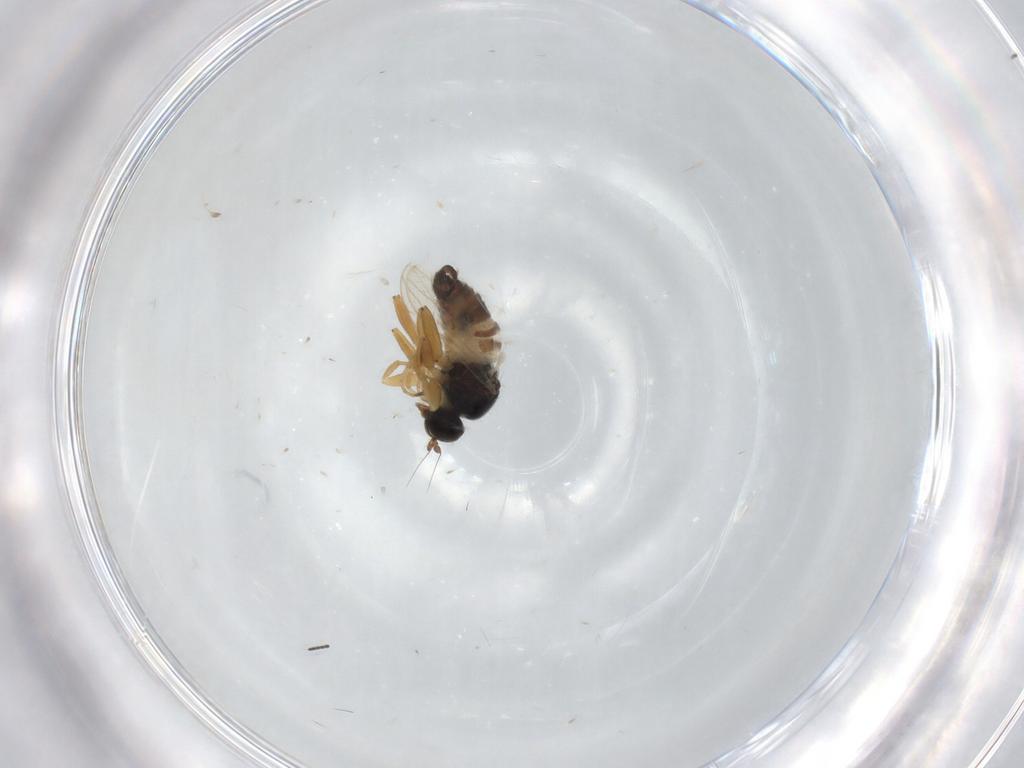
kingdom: Animalia
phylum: Arthropoda
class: Insecta
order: Diptera
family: Hybotidae
